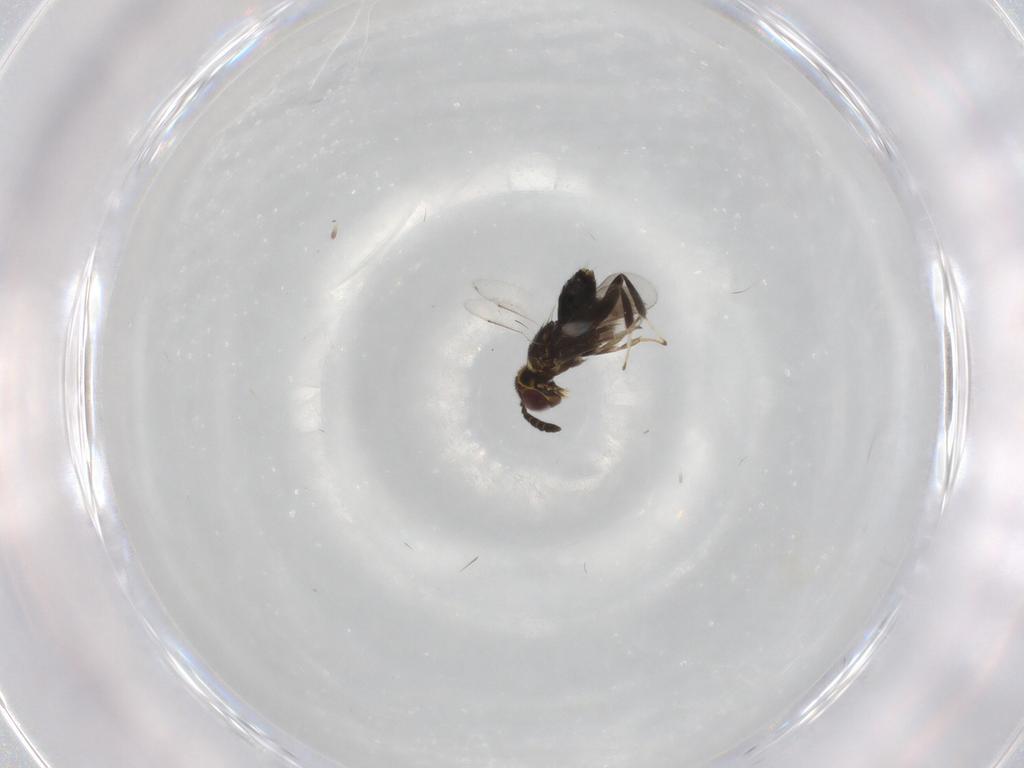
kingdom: Animalia
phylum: Arthropoda
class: Insecta
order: Hymenoptera
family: Aphelinidae
